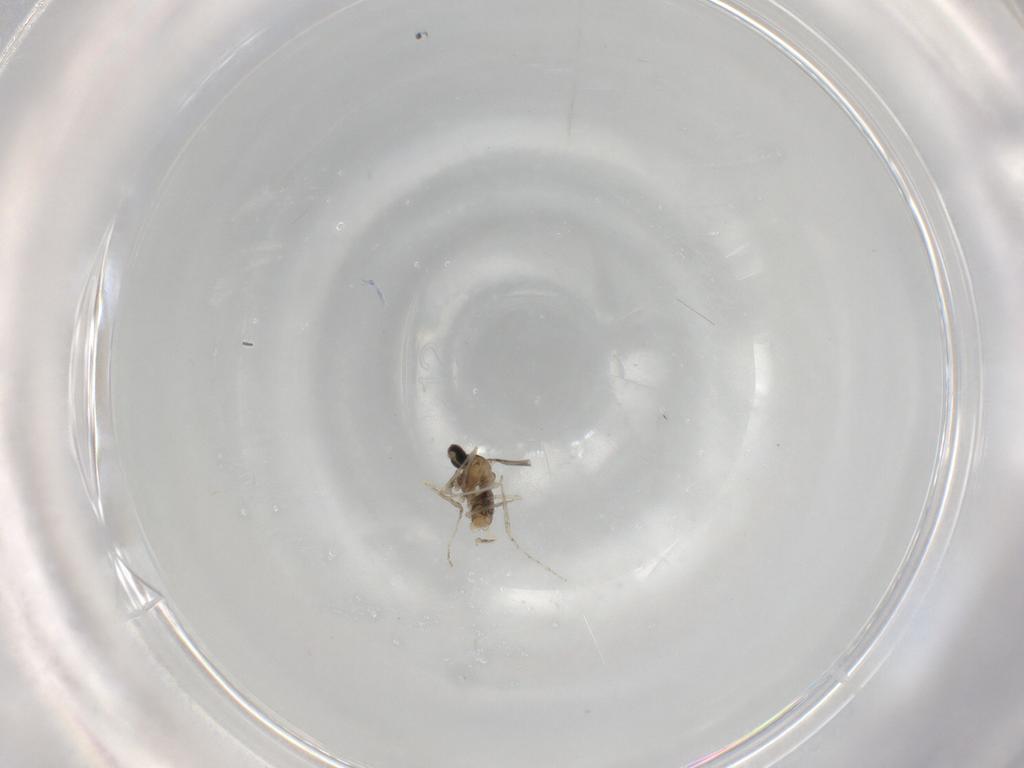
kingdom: Animalia
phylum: Arthropoda
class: Insecta
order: Diptera
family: Cecidomyiidae
